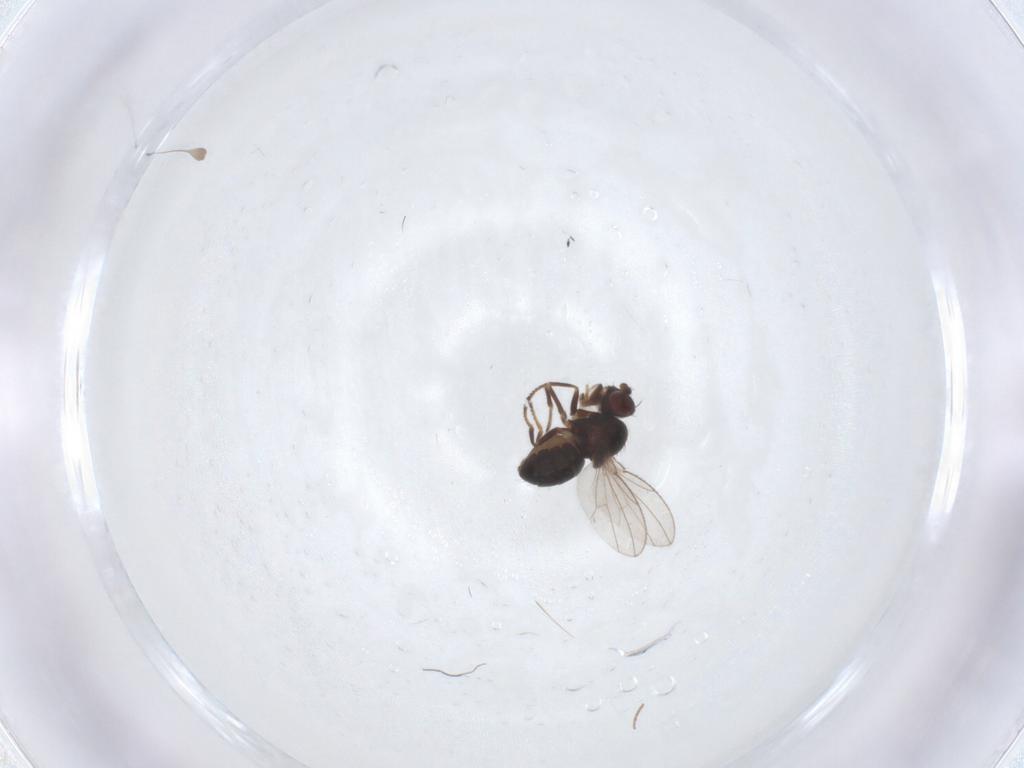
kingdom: Animalia
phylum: Arthropoda
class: Insecta
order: Diptera
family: Ephydridae
